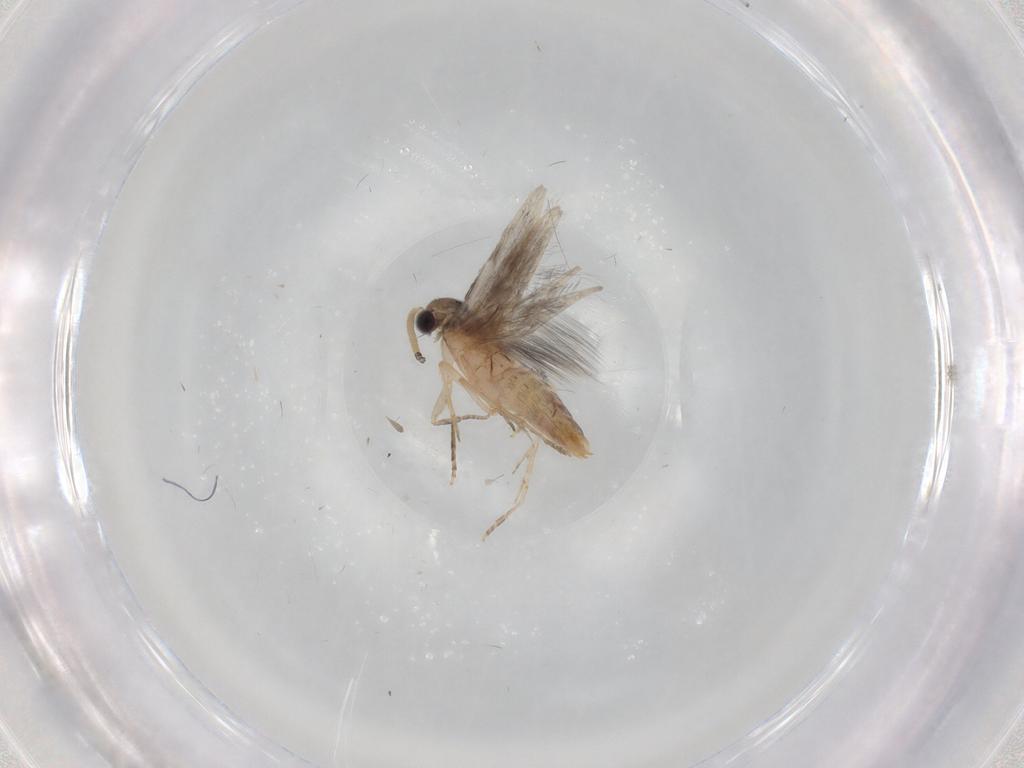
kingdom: Animalia
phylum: Arthropoda
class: Insecta
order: Trichoptera
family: Hydroptilidae
